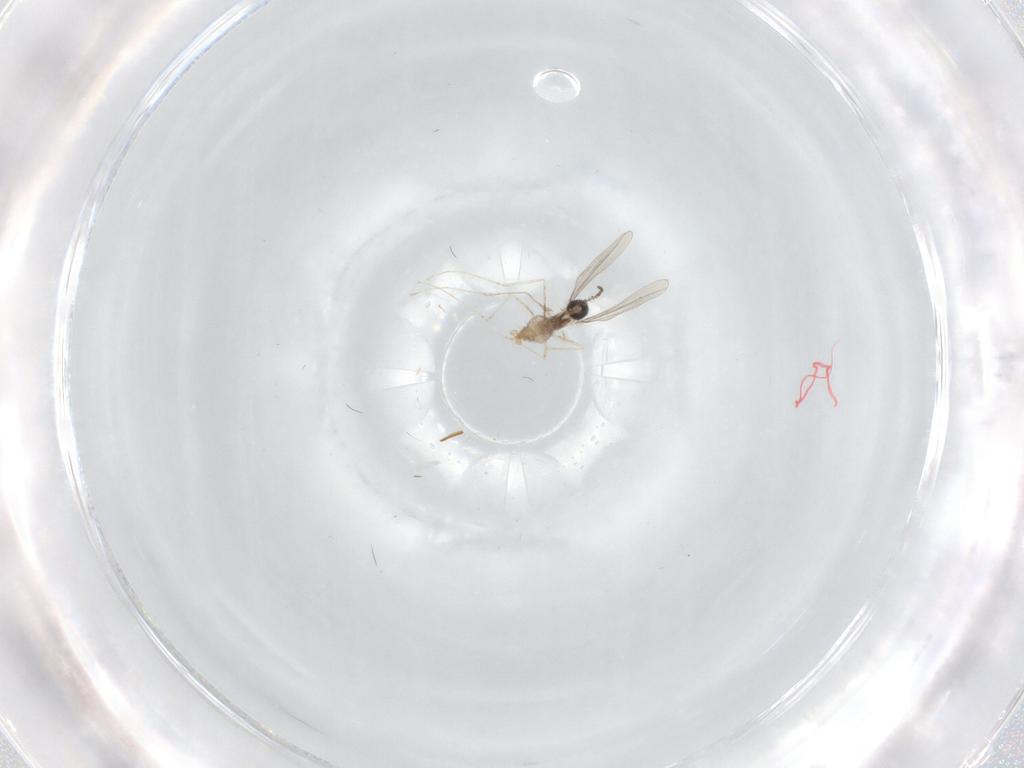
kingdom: Animalia
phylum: Arthropoda
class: Insecta
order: Diptera
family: Cecidomyiidae
